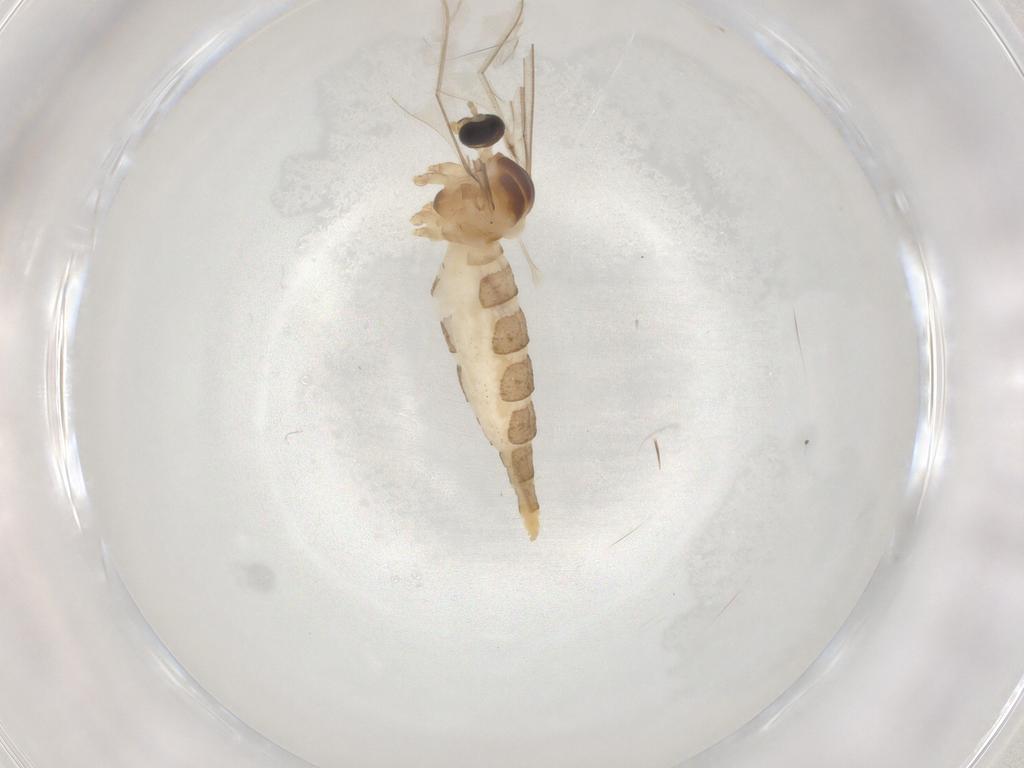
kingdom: Animalia
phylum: Arthropoda
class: Insecta
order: Diptera
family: Cecidomyiidae
